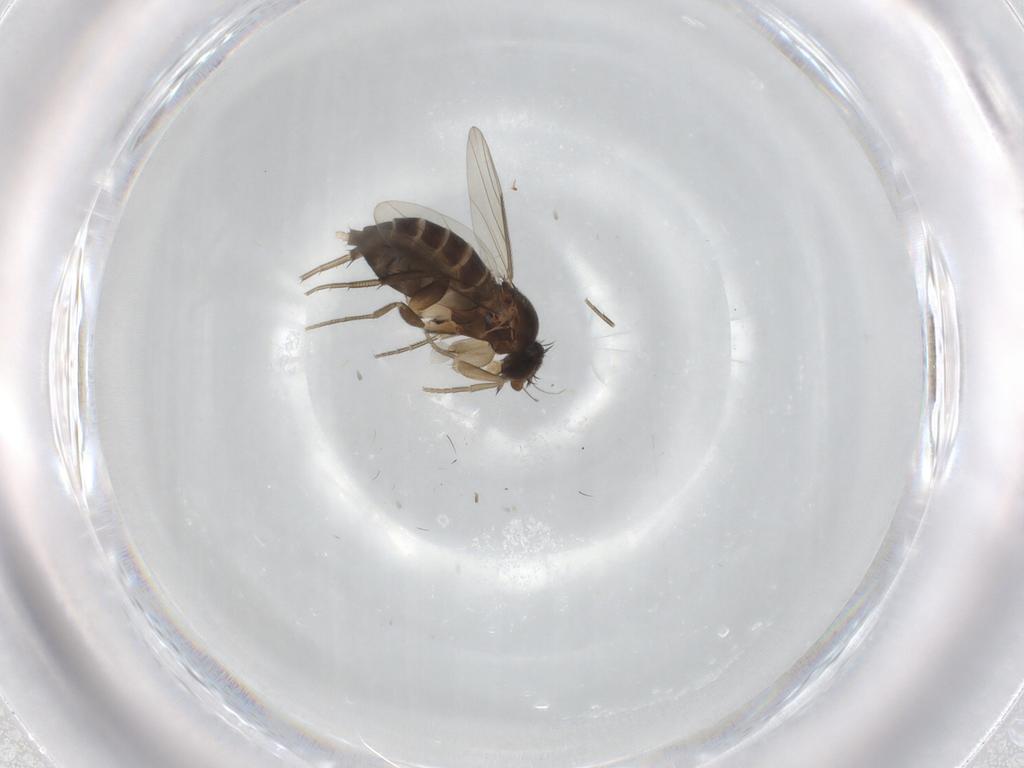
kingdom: Animalia
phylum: Arthropoda
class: Insecta
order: Diptera
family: Phoridae
